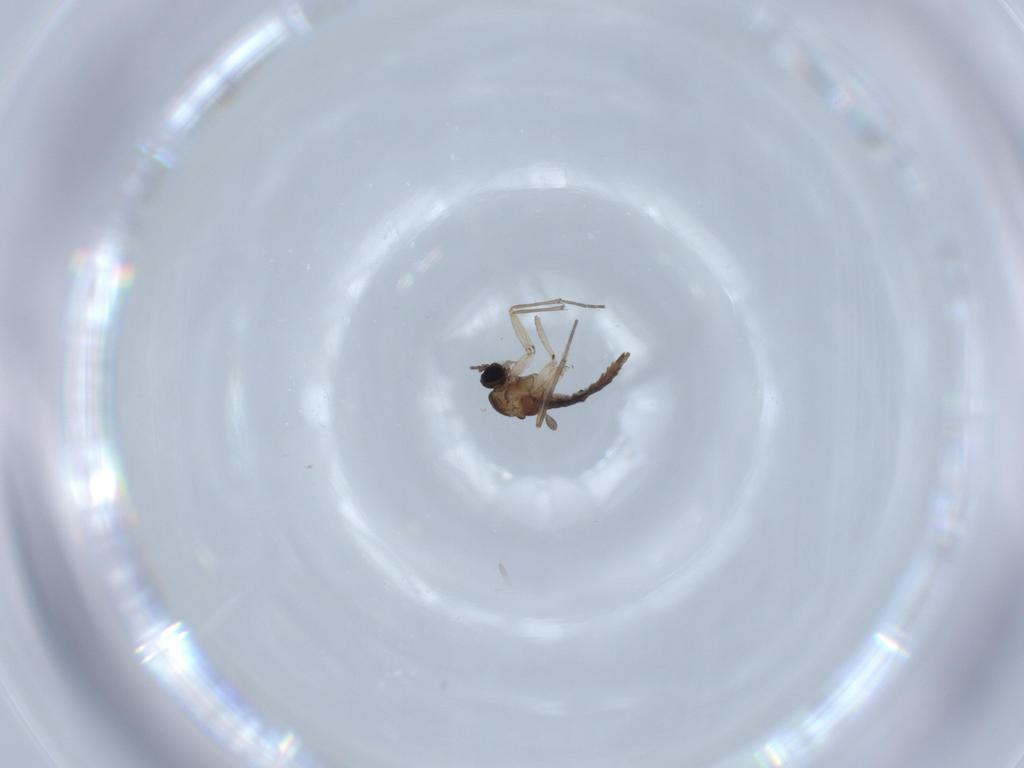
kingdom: Animalia
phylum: Arthropoda
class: Insecta
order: Diptera
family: Sciaridae
